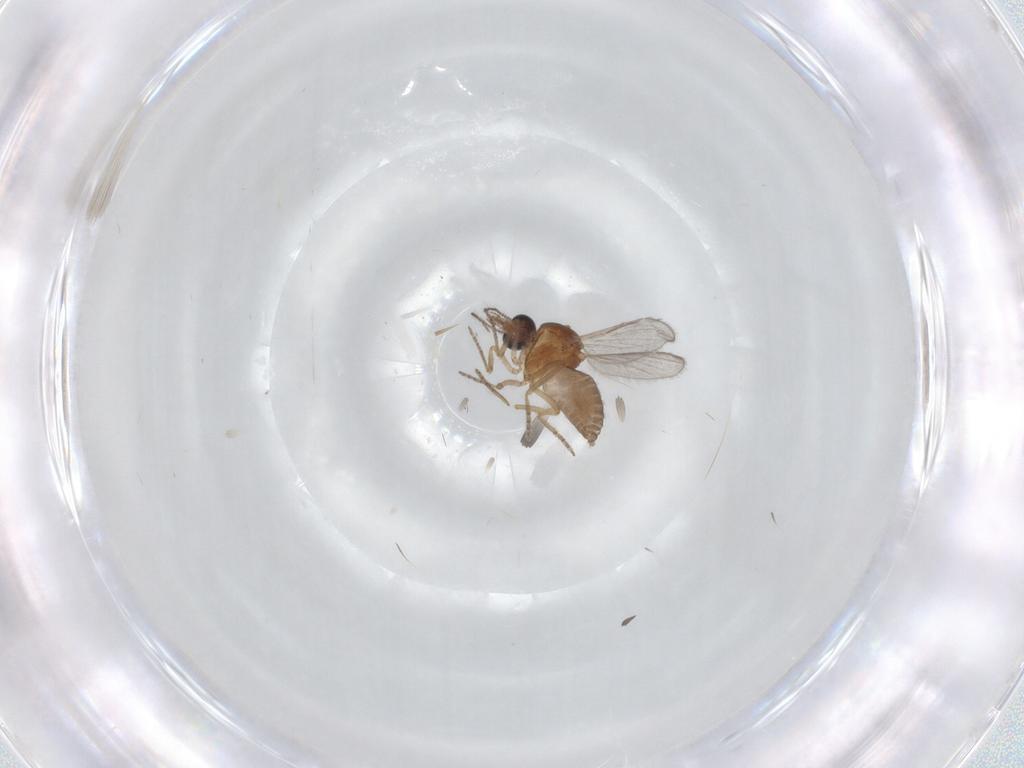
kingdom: Animalia
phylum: Arthropoda
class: Insecta
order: Diptera
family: Ceratopogonidae
